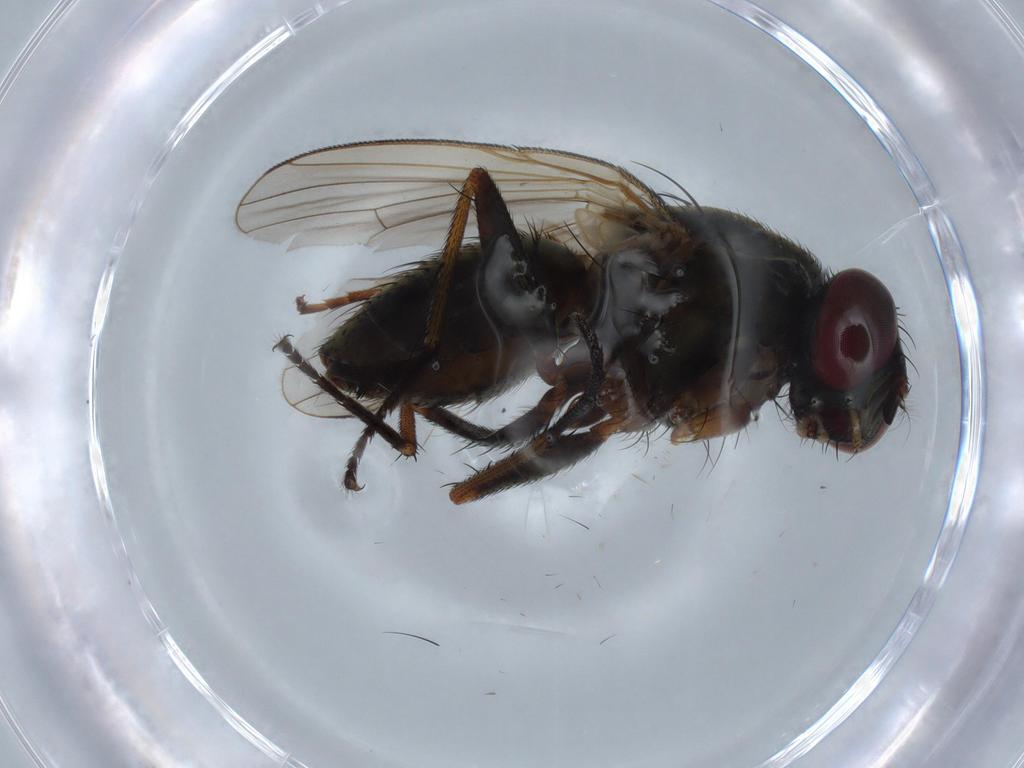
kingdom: Animalia
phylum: Arthropoda
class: Insecta
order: Diptera
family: Muscidae
